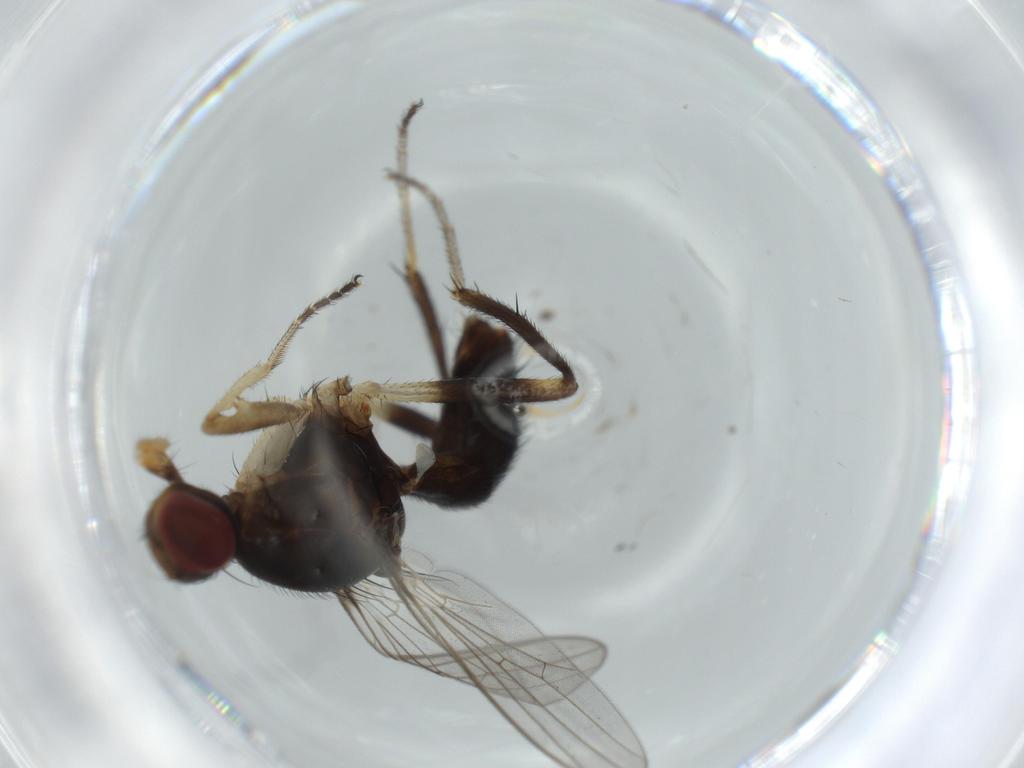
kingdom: Animalia
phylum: Arthropoda
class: Insecta
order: Diptera
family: Sepsidae
